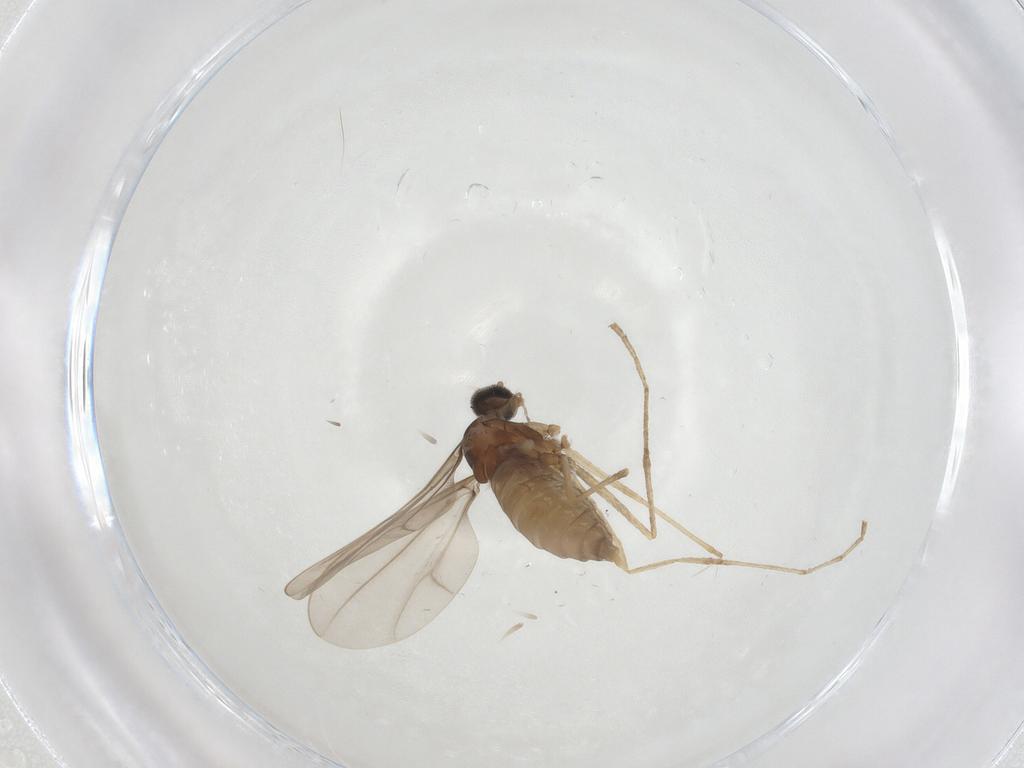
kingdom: Animalia
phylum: Arthropoda
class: Insecta
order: Diptera
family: Cecidomyiidae
